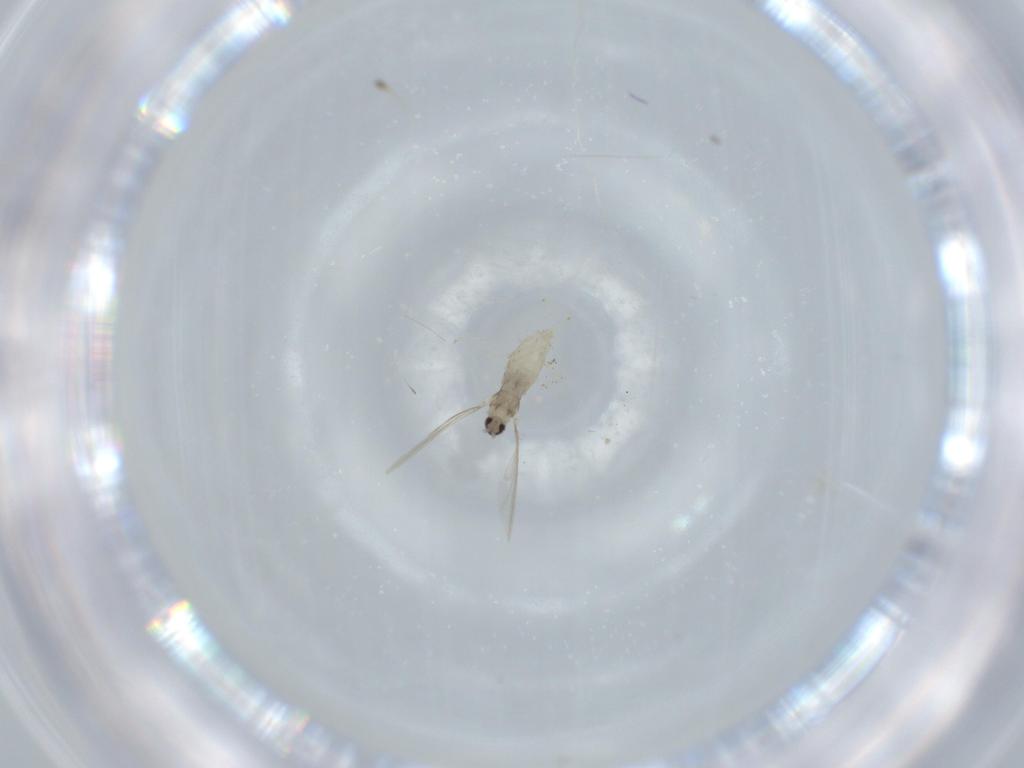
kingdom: Animalia
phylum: Arthropoda
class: Insecta
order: Diptera
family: Cecidomyiidae
